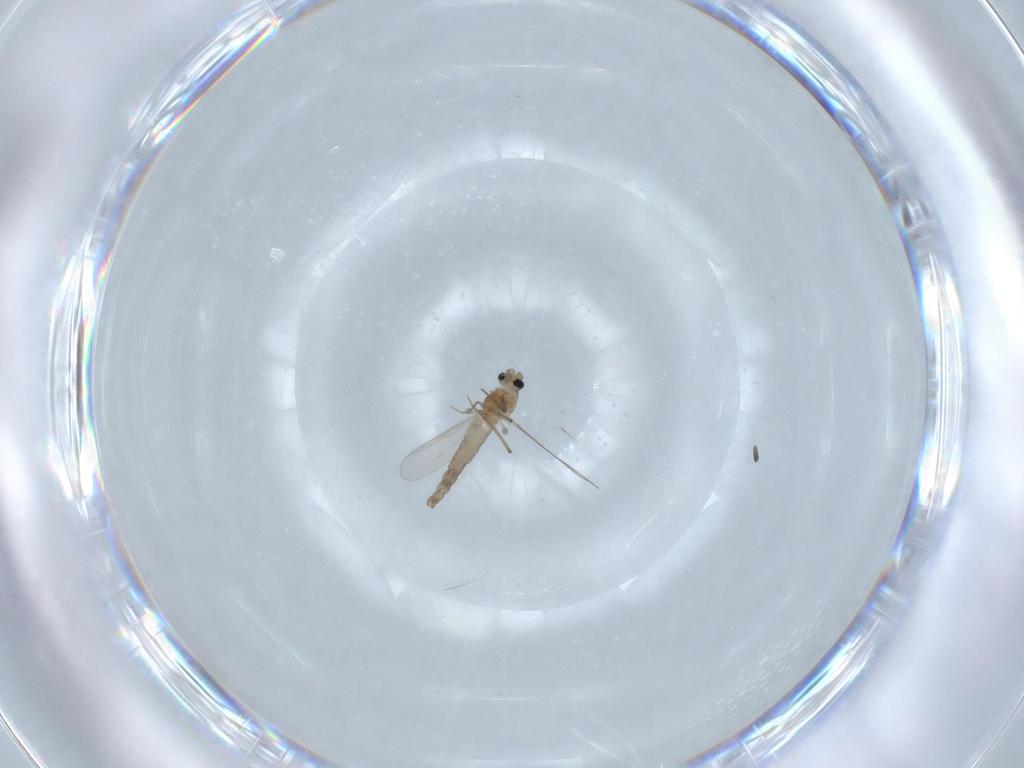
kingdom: Animalia
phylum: Arthropoda
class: Insecta
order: Diptera
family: Chironomidae
